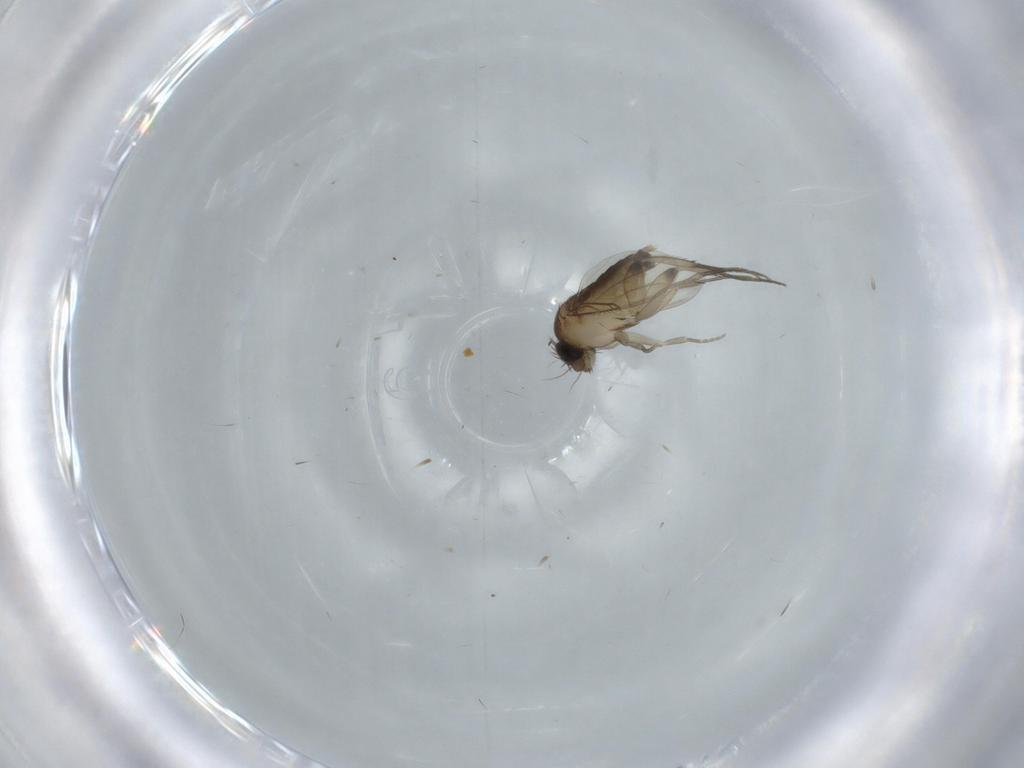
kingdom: Animalia
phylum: Arthropoda
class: Insecta
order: Diptera
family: Phoridae
